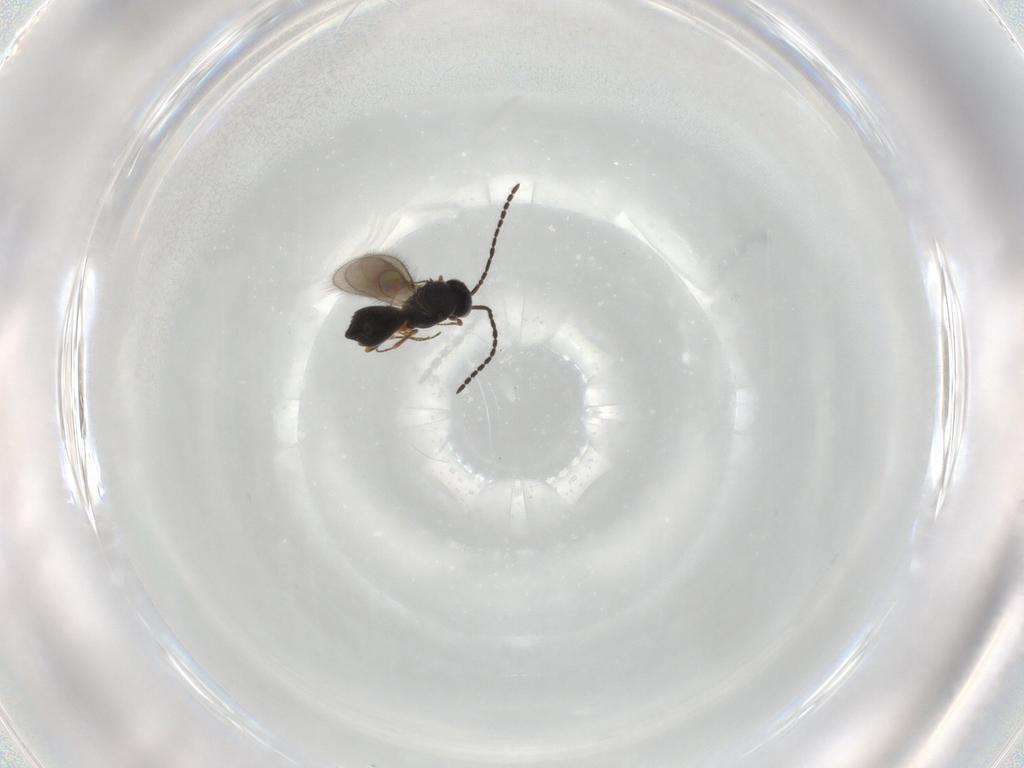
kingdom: Animalia
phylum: Arthropoda
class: Insecta
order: Hymenoptera
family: Scelionidae
